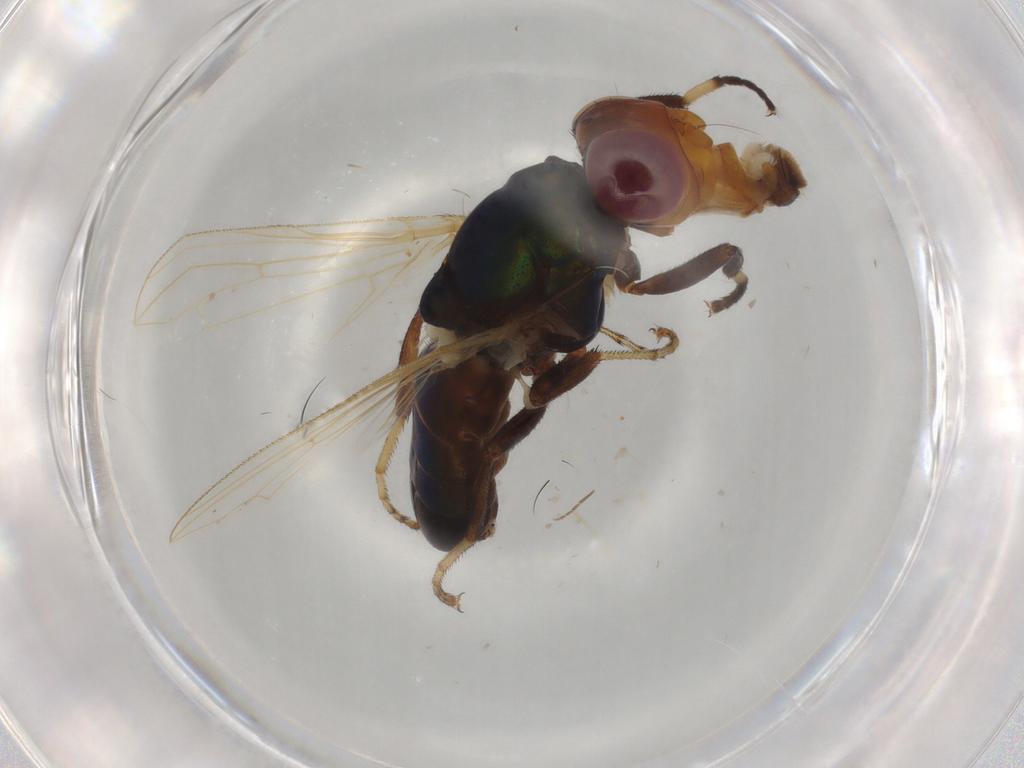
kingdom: Animalia
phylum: Arthropoda
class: Insecta
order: Diptera
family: Ulidiidae
